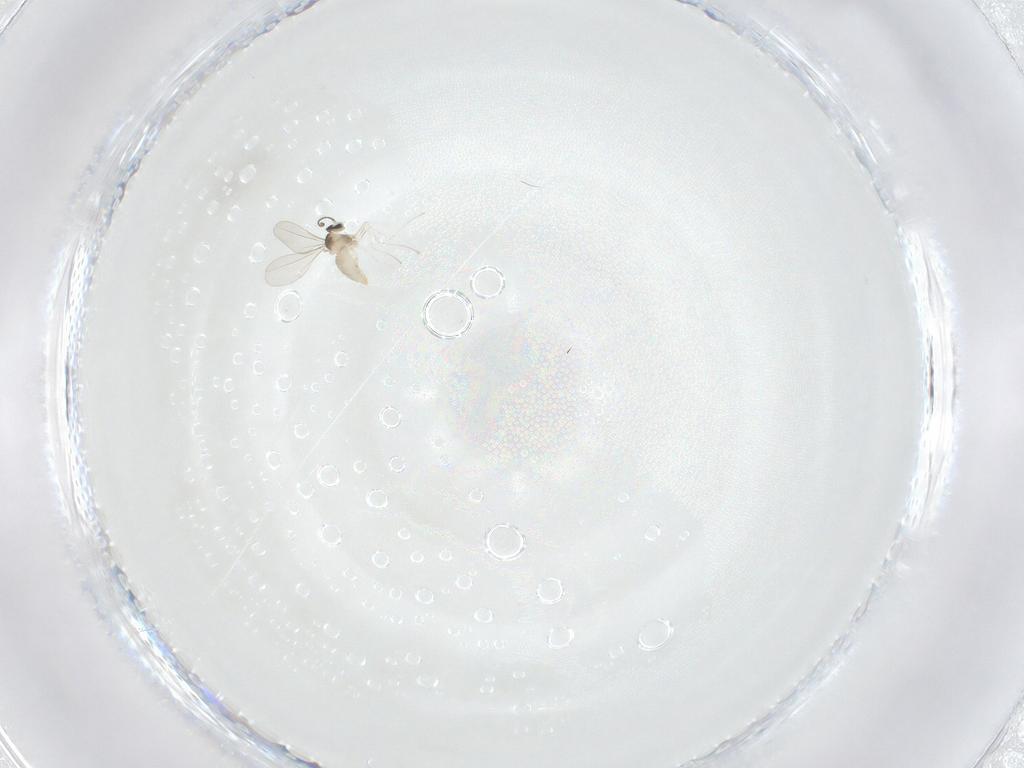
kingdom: Animalia
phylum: Arthropoda
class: Insecta
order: Diptera
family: Cecidomyiidae
